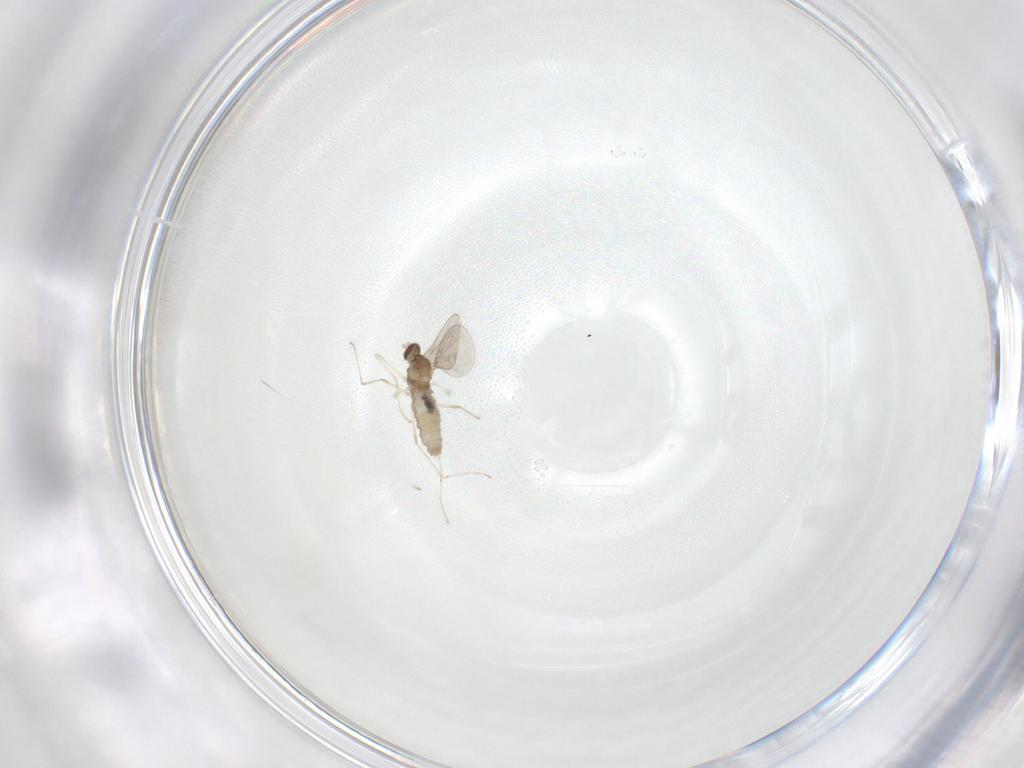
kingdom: Animalia
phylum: Arthropoda
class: Insecta
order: Diptera
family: Cecidomyiidae
